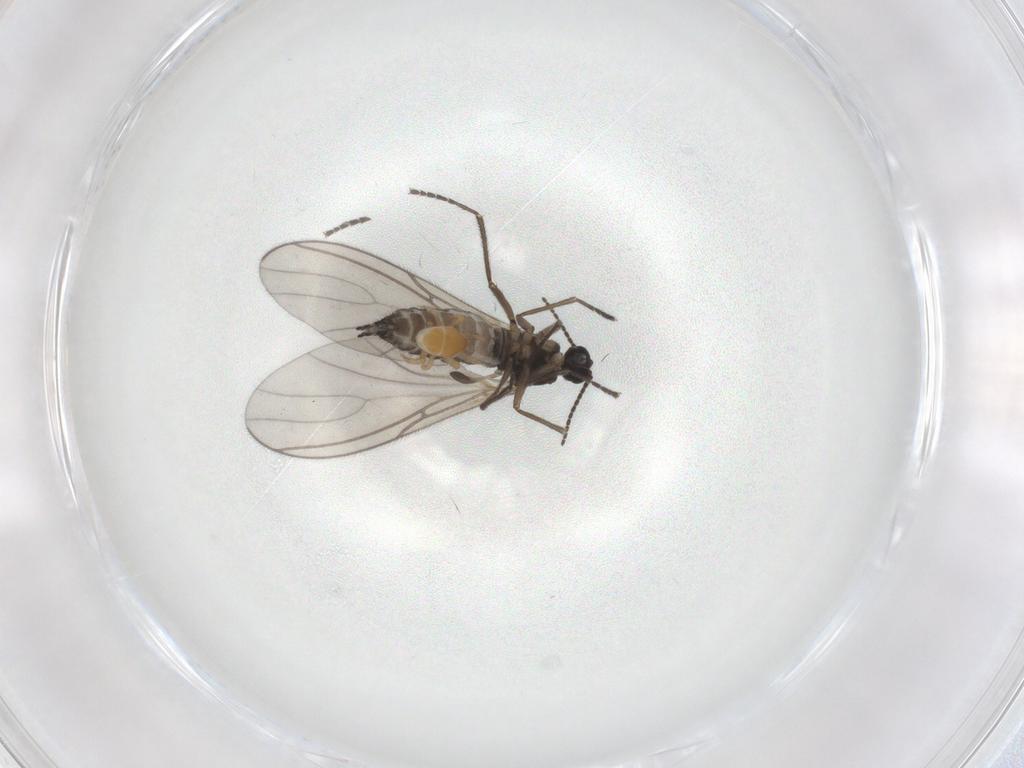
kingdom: Animalia
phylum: Arthropoda
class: Insecta
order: Diptera
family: Sciaridae
